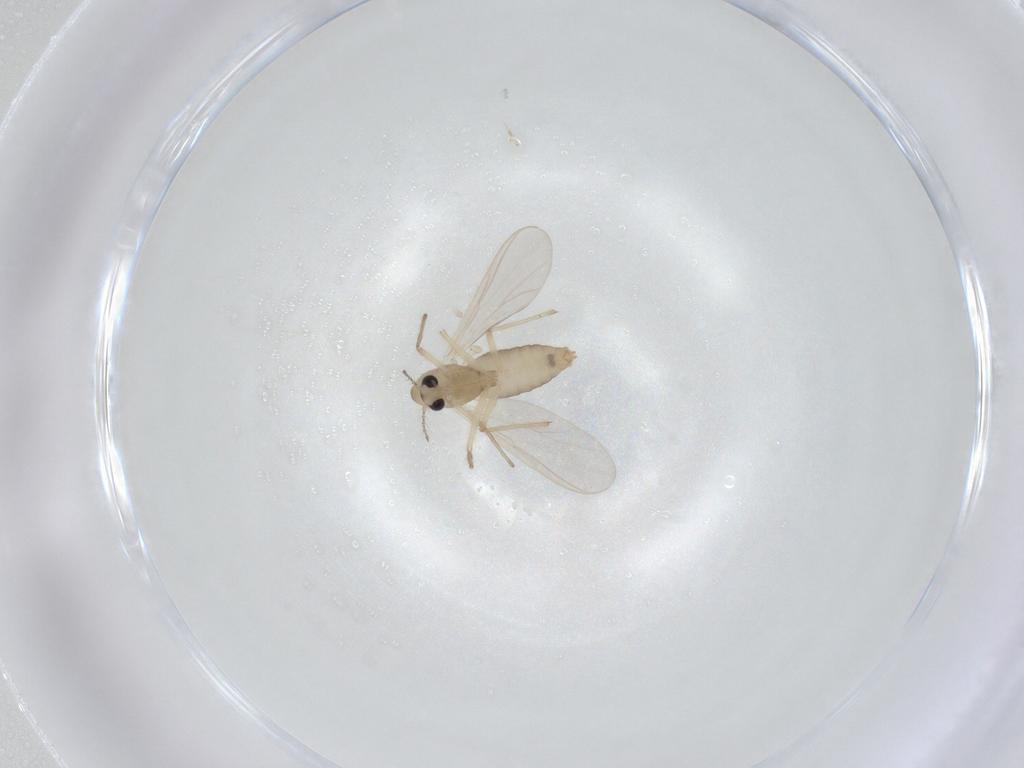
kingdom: Animalia
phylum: Arthropoda
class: Insecta
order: Diptera
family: Chironomidae
